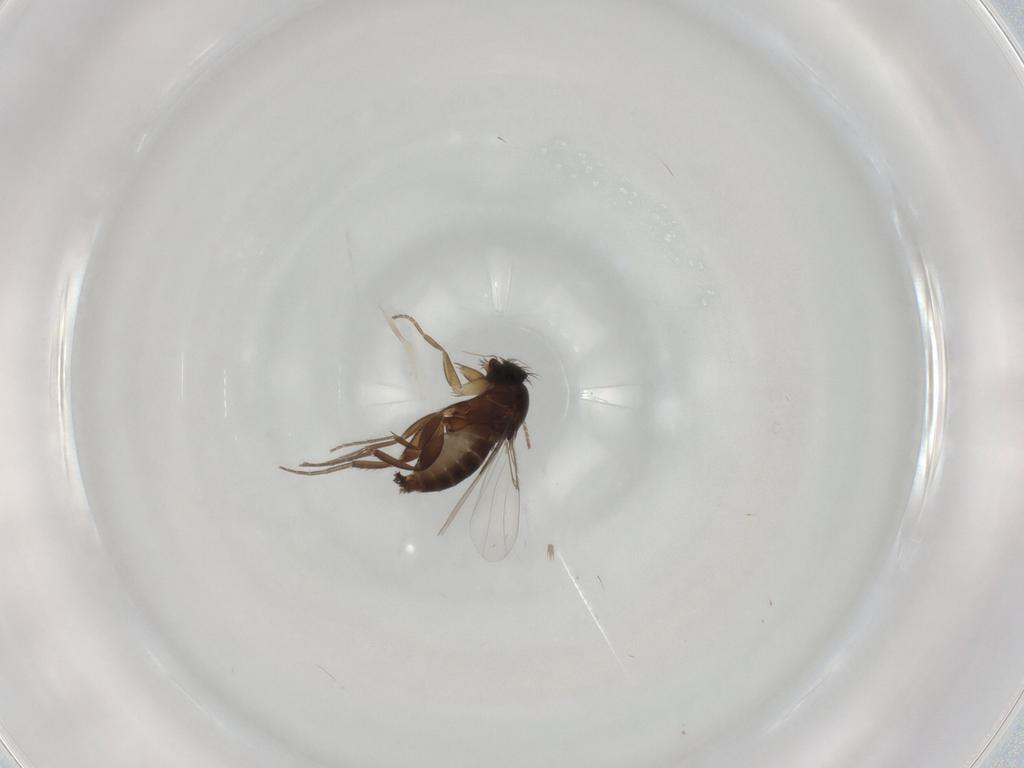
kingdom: Animalia
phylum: Arthropoda
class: Insecta
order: Diptera
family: Phoridae
